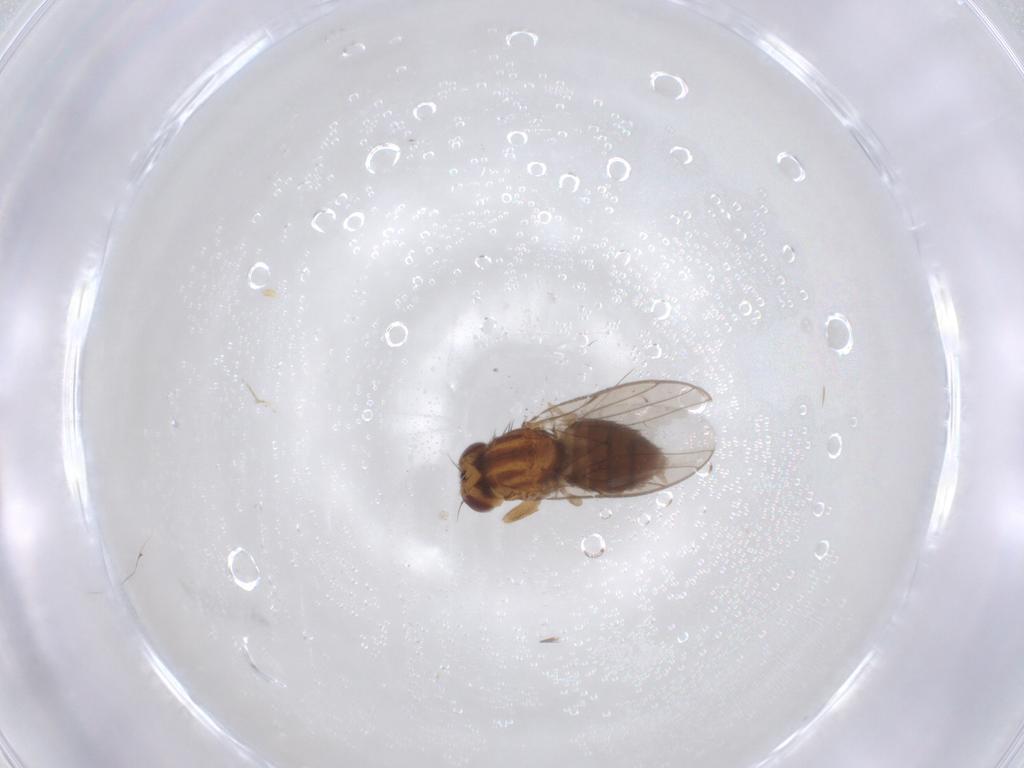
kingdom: Animalia
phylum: Arthropoda
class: Insecta
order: Diptera
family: Chloropidae
